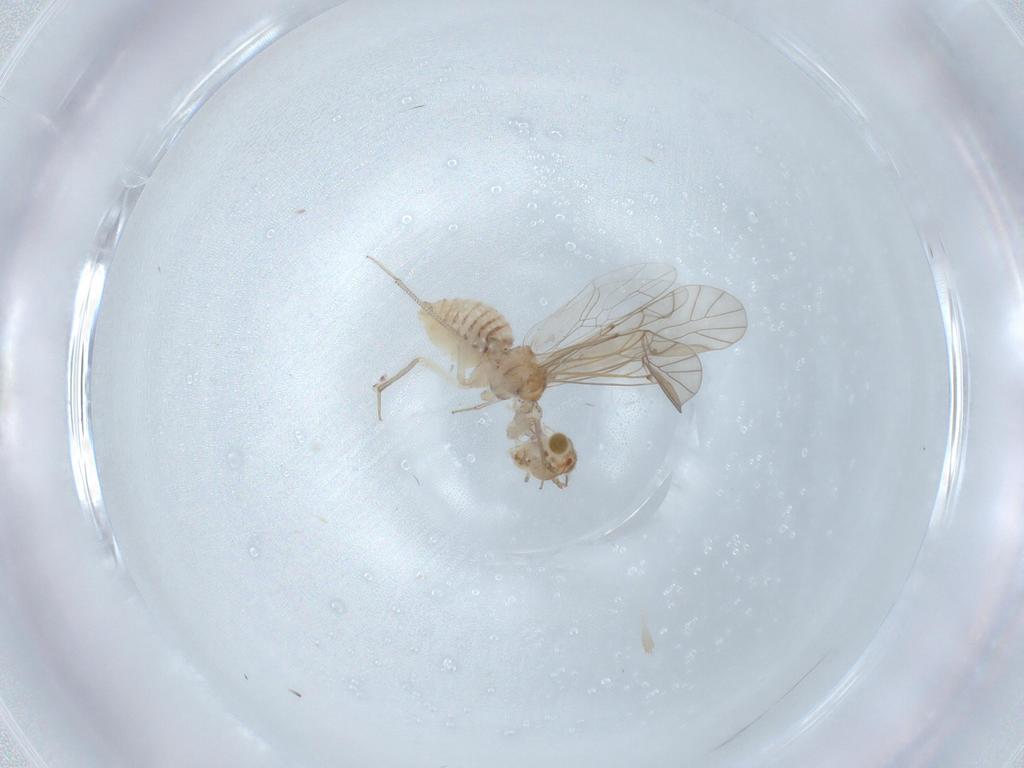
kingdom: Animalia
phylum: Arthropoda
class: Insecta
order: Psocodea
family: Lachesillidae
